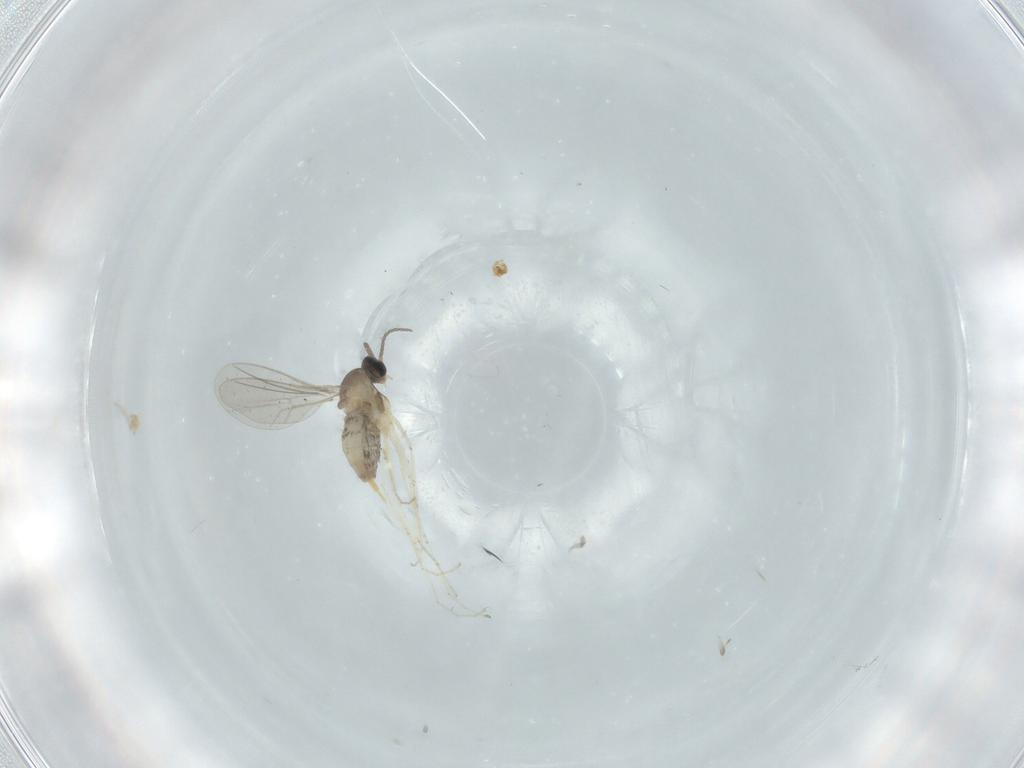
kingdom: Animalia
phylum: Arthropoda
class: Insecta
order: Diptera
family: Cecidomyiidae
